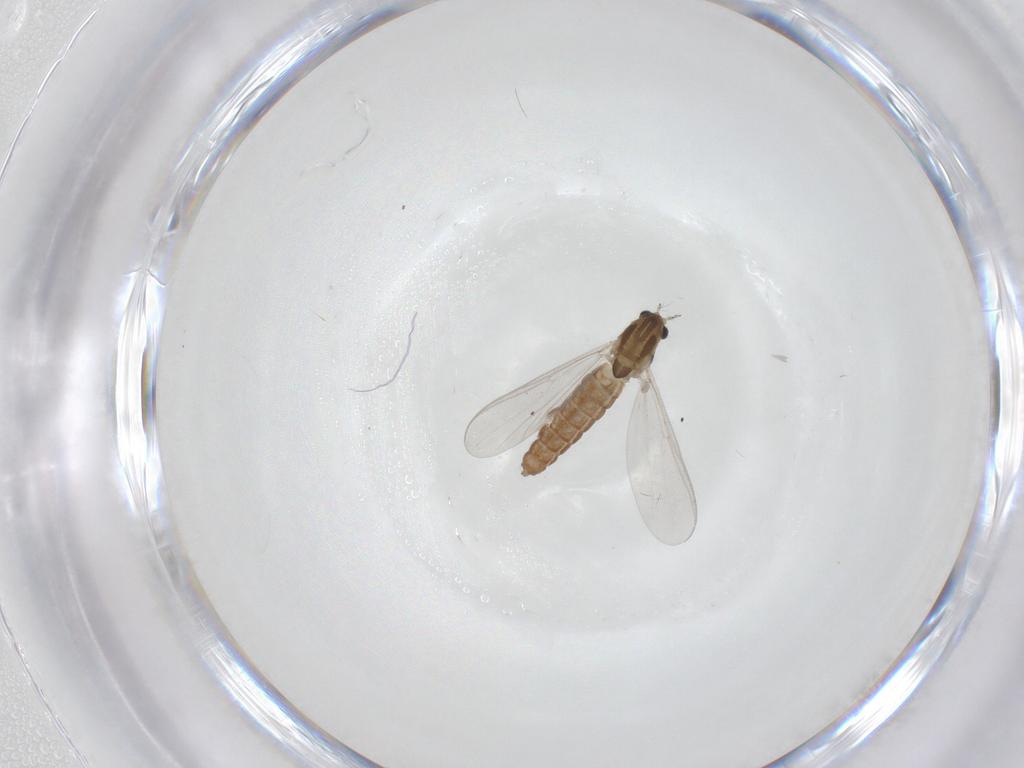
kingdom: Animalia
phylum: Arthropoda
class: Insecta
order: Diptera
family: Chironomidae
